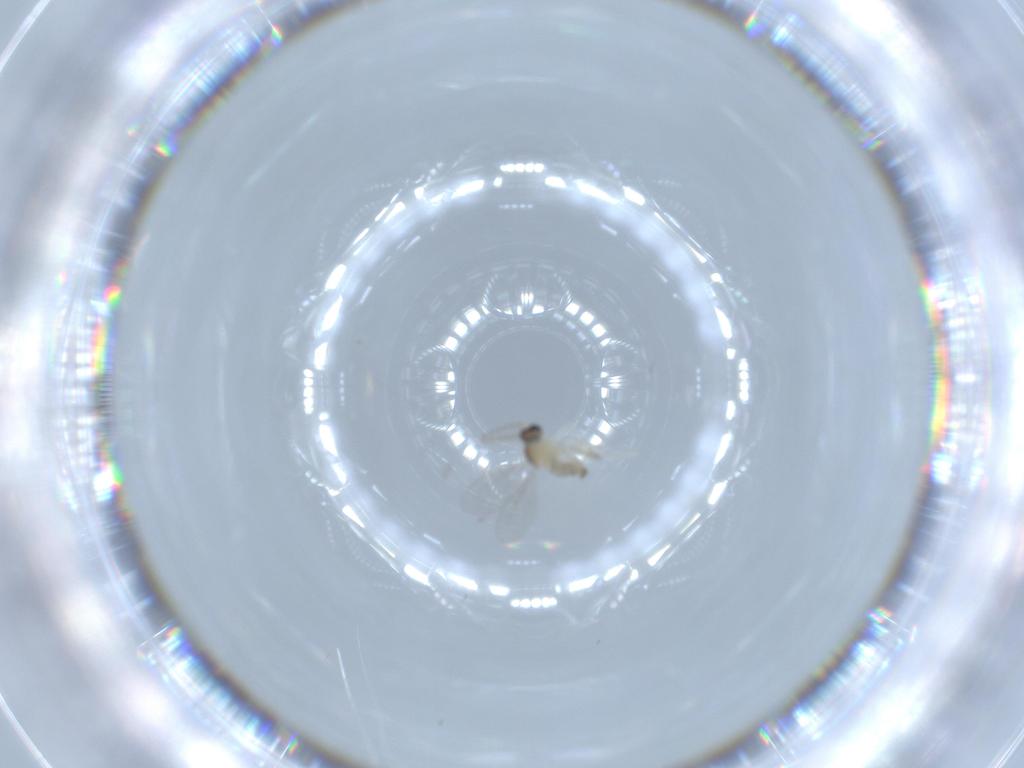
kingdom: Animalia
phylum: Arthropoda
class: Insecta
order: Diptera
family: Cecidomyiidae
